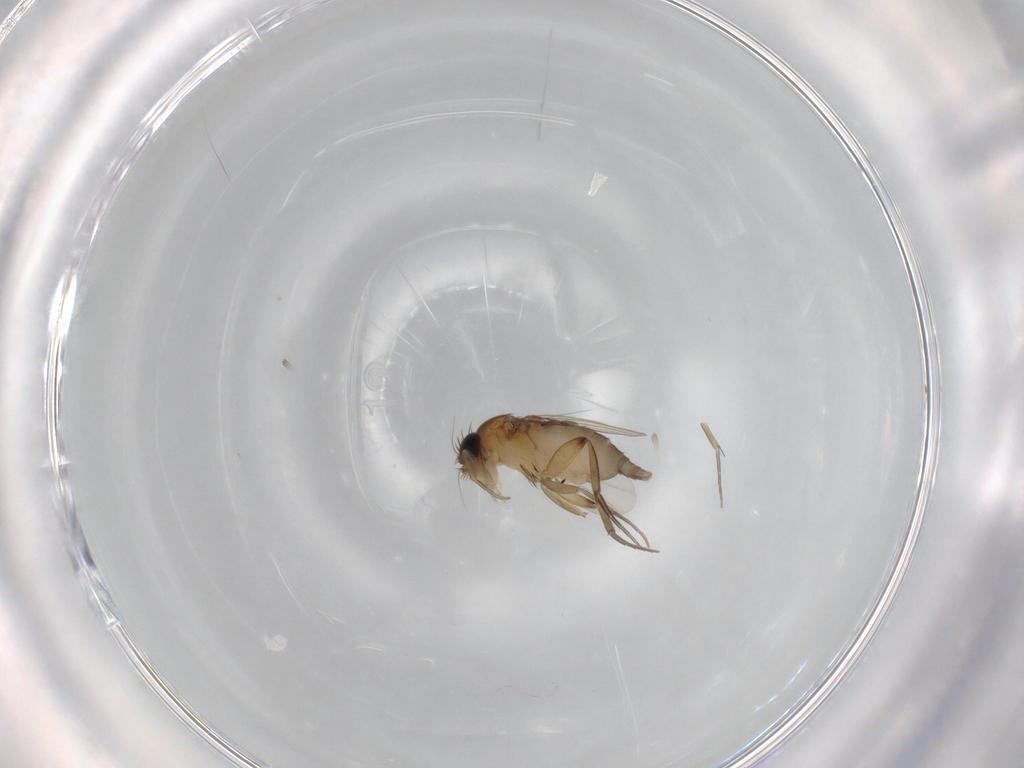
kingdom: Animalia
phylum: Arthropoda
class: Insecta
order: Diptera
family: Phoridae
